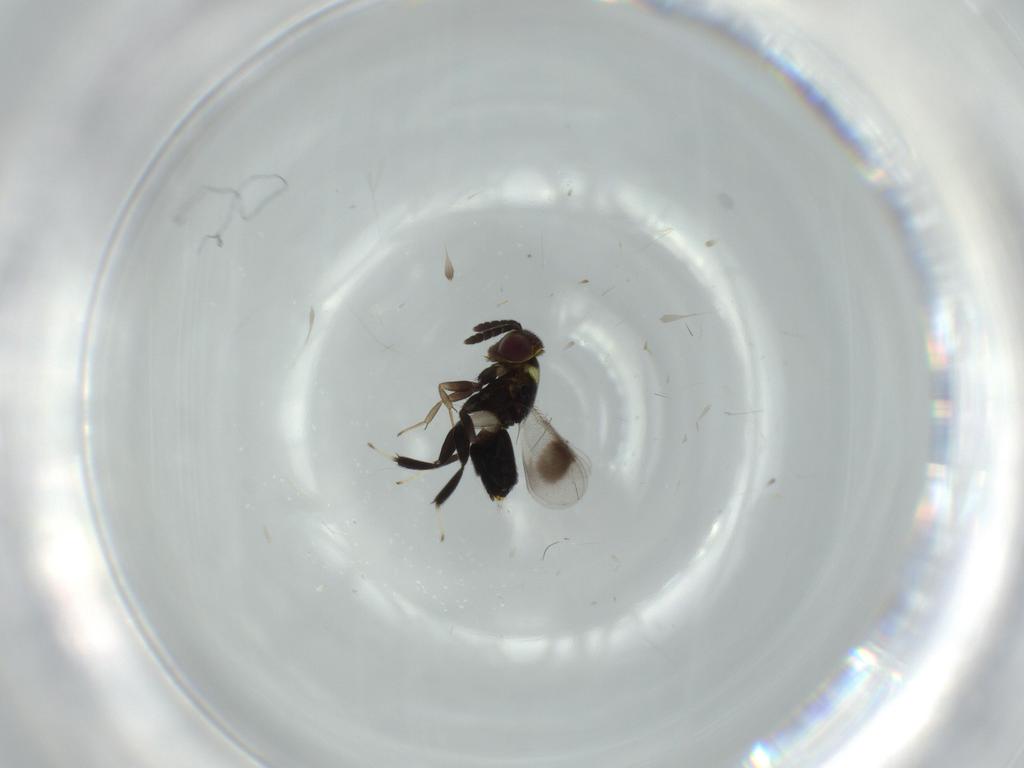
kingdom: Animalia
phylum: Arthropoda
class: Insecta
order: Hymenoptera
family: Aphelinidae
